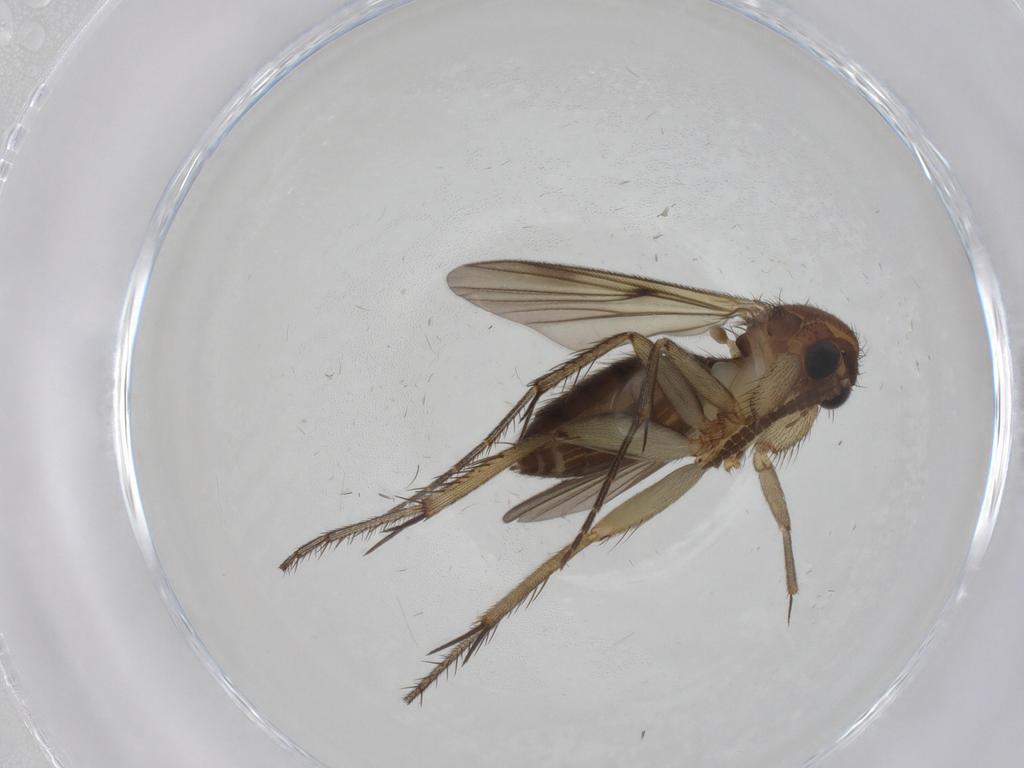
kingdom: Animalia
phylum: Arthropoda
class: Insecta
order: Diptera
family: Mycetophilidae
